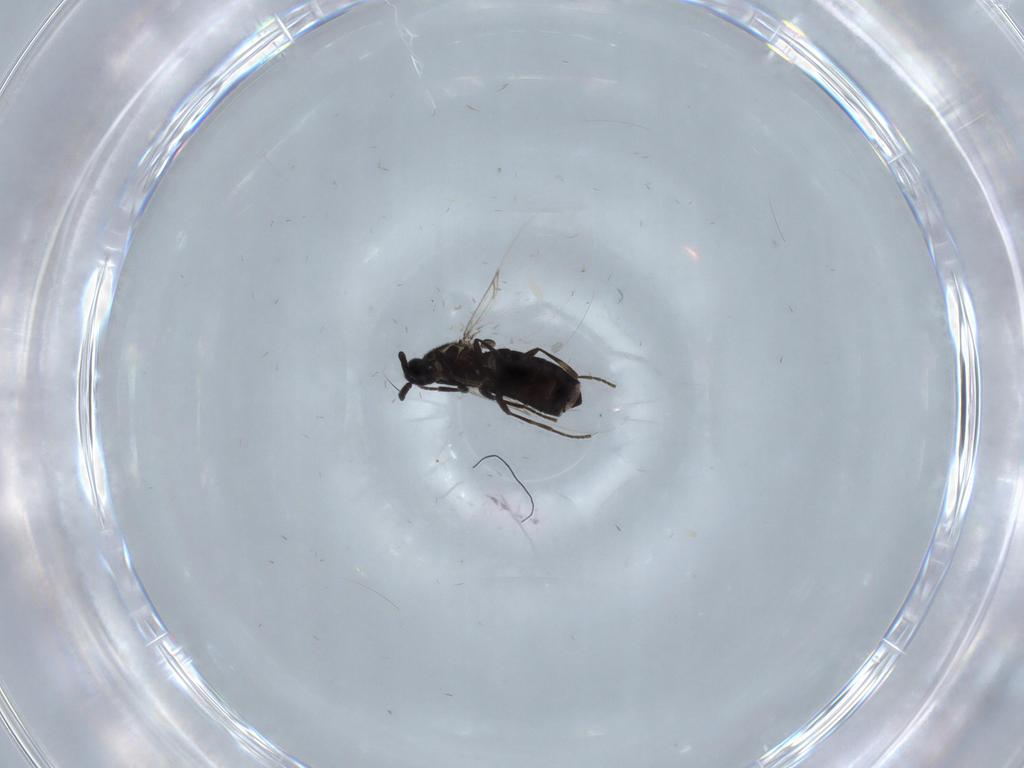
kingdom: Animalia
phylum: Arthropoda
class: Insecta
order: Diptera
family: Scatopsidae
